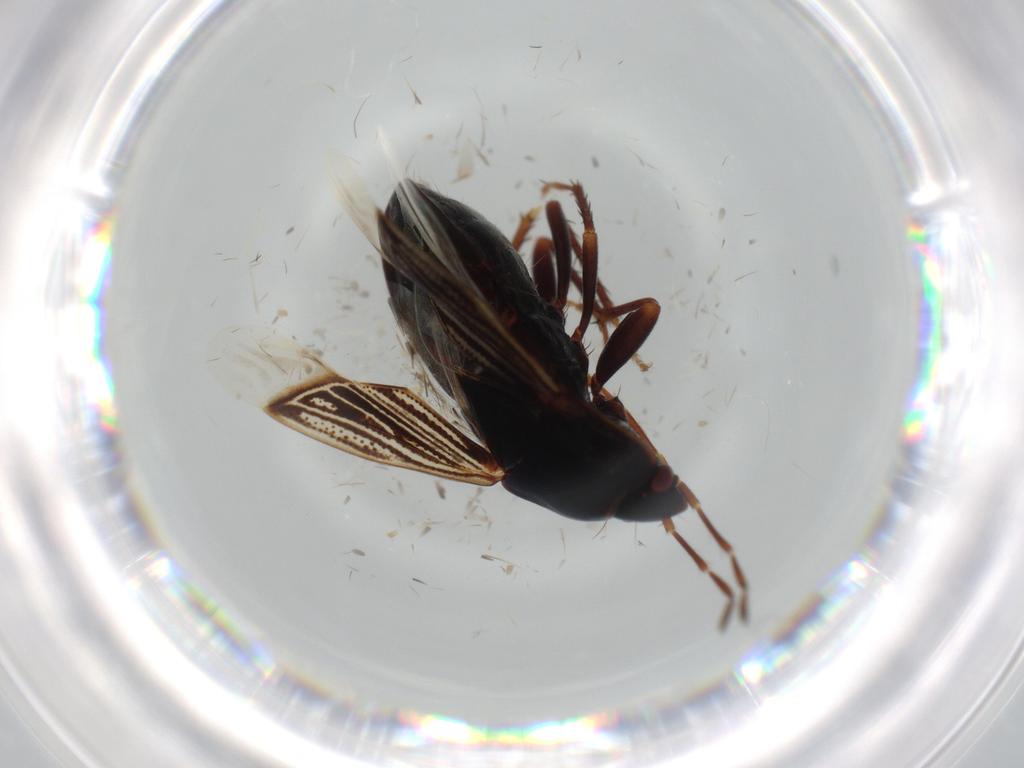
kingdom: Animalia
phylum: Arthropoda
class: Insecta
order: Hemiptera
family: Rhyparochromidae
